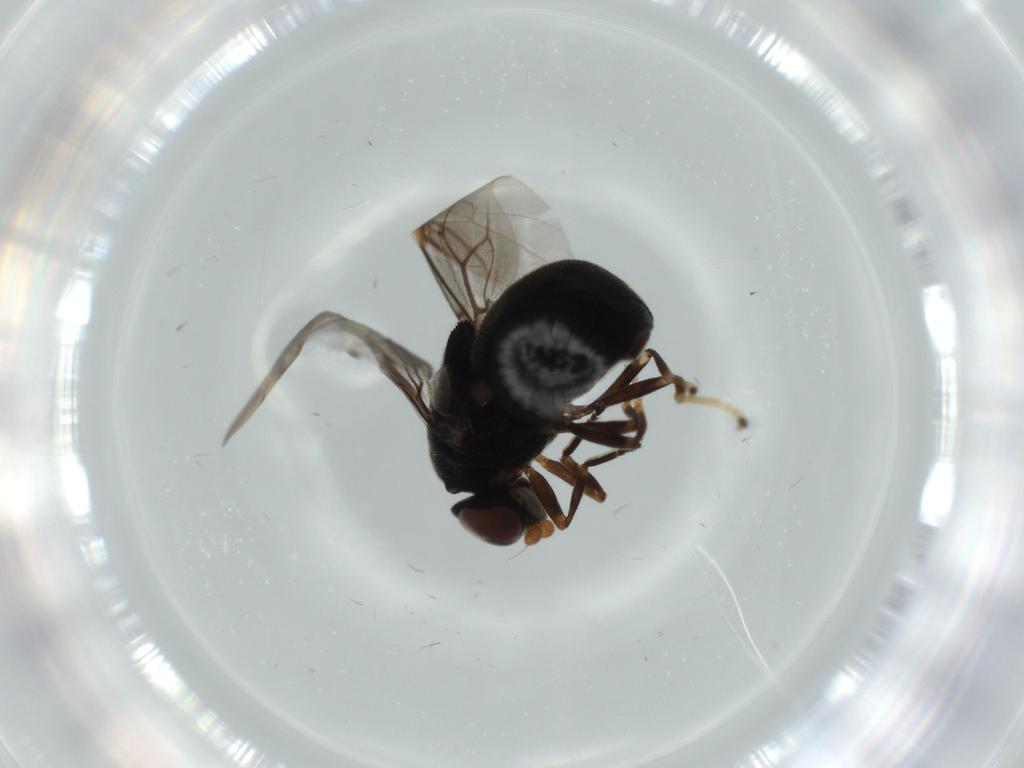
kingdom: Animalia
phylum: Arthropoda
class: Insecta
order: Diptera
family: Stratiomyidae
